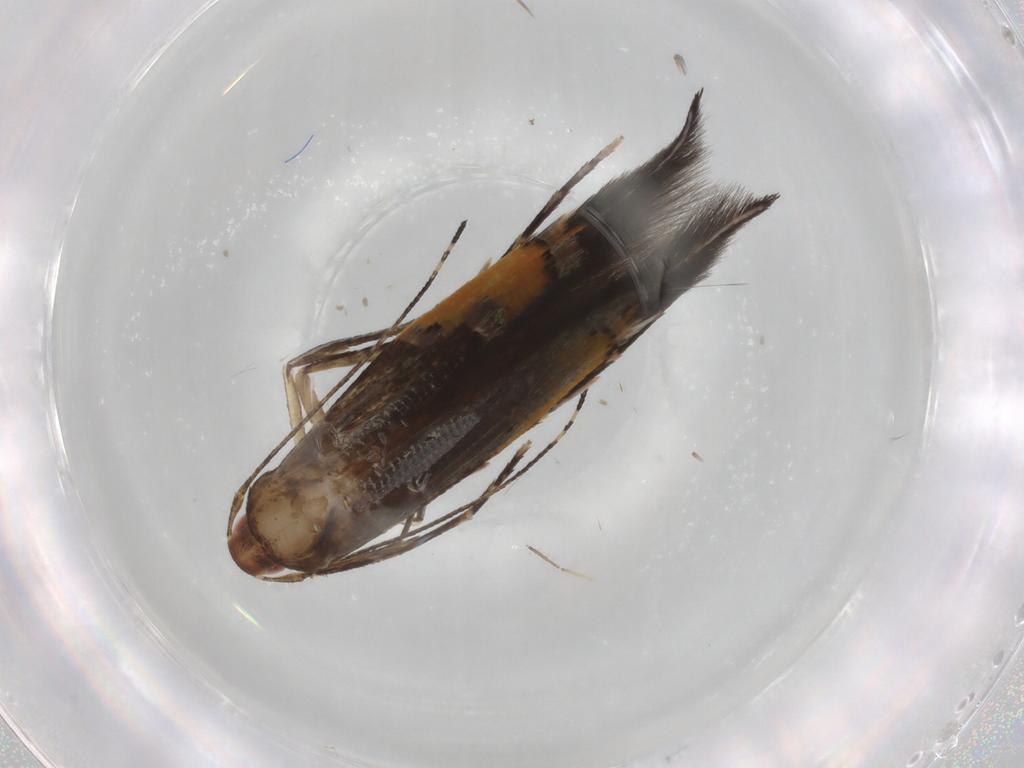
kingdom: Animalia
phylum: Arthropoda
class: Insecta
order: Lepidoptera
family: Cosmopterigidae
